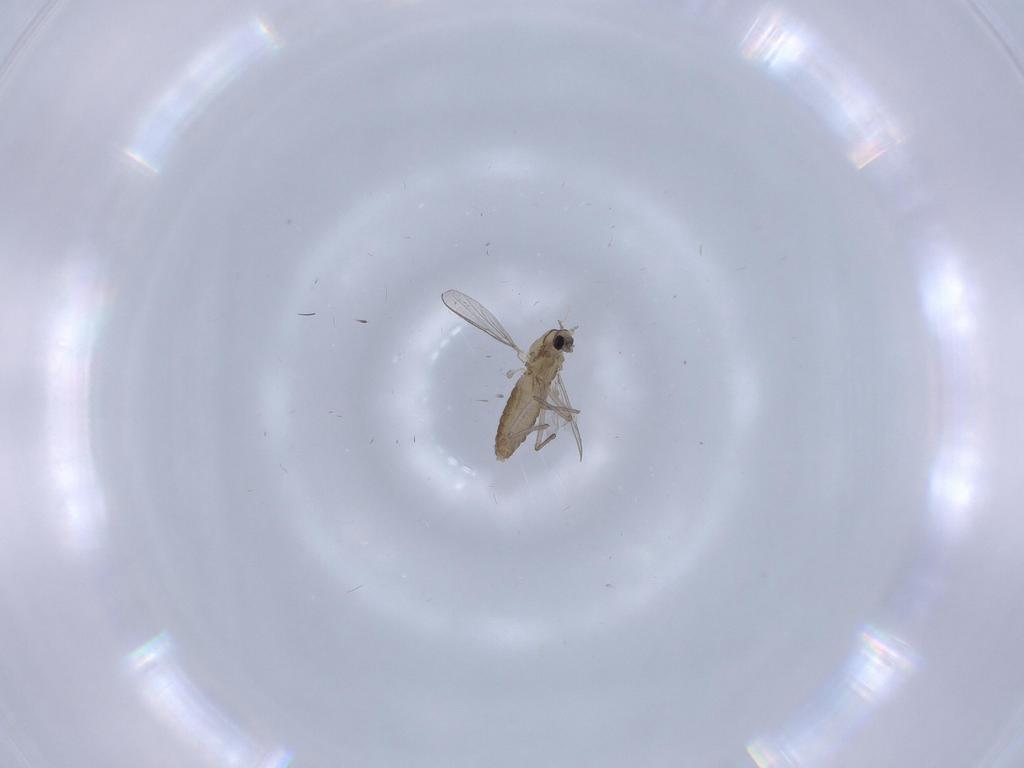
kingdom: Animalia
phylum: Arthropoda
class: Insecta
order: Diptera
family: Chironomidae
